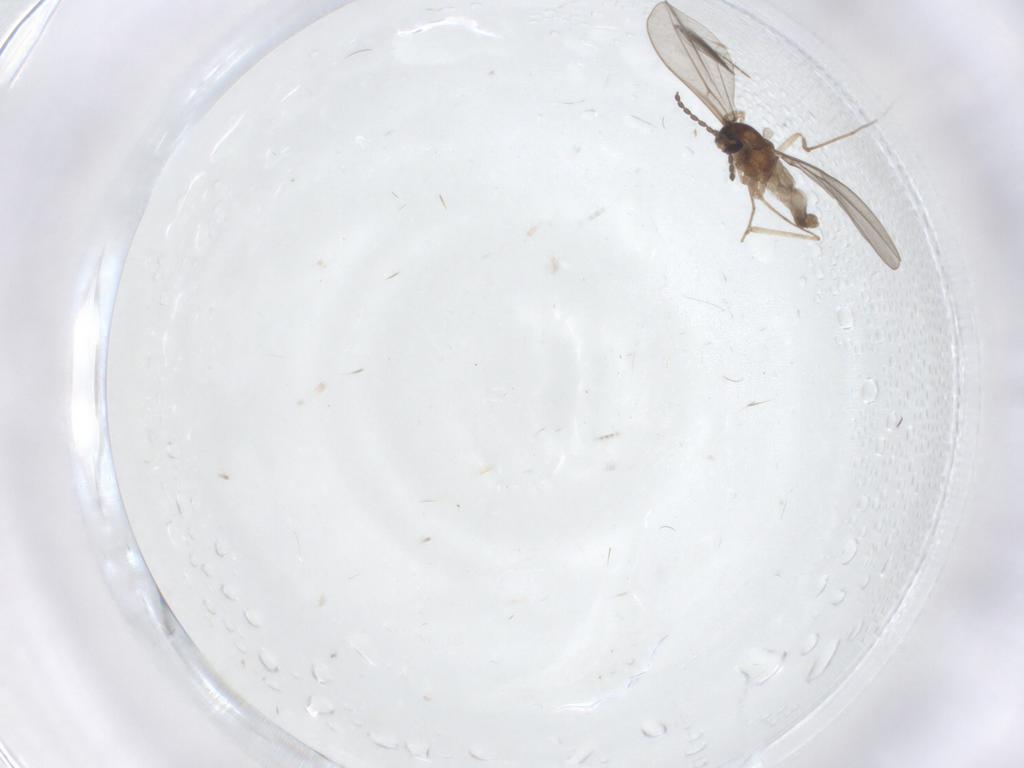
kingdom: Animalia
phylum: Arthropoda
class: Insecta
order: Diptera
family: Cecidomyiidae
